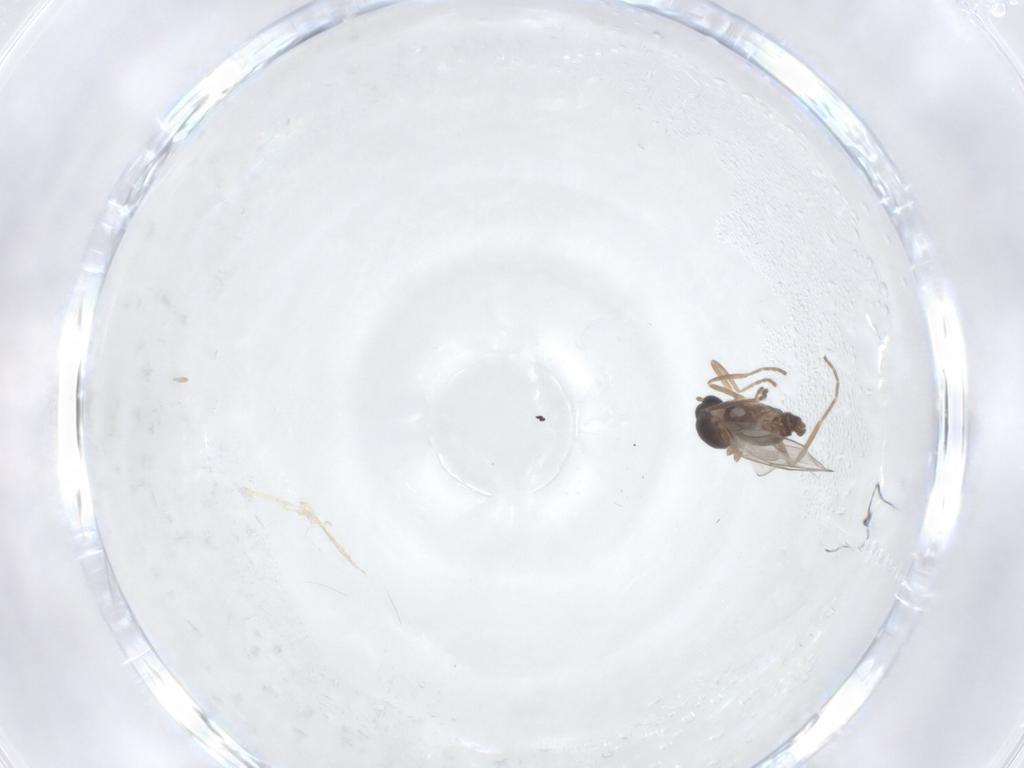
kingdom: Animalia
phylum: Arthropoda
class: Insecta
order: Diptera
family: Cecidomyiidae
